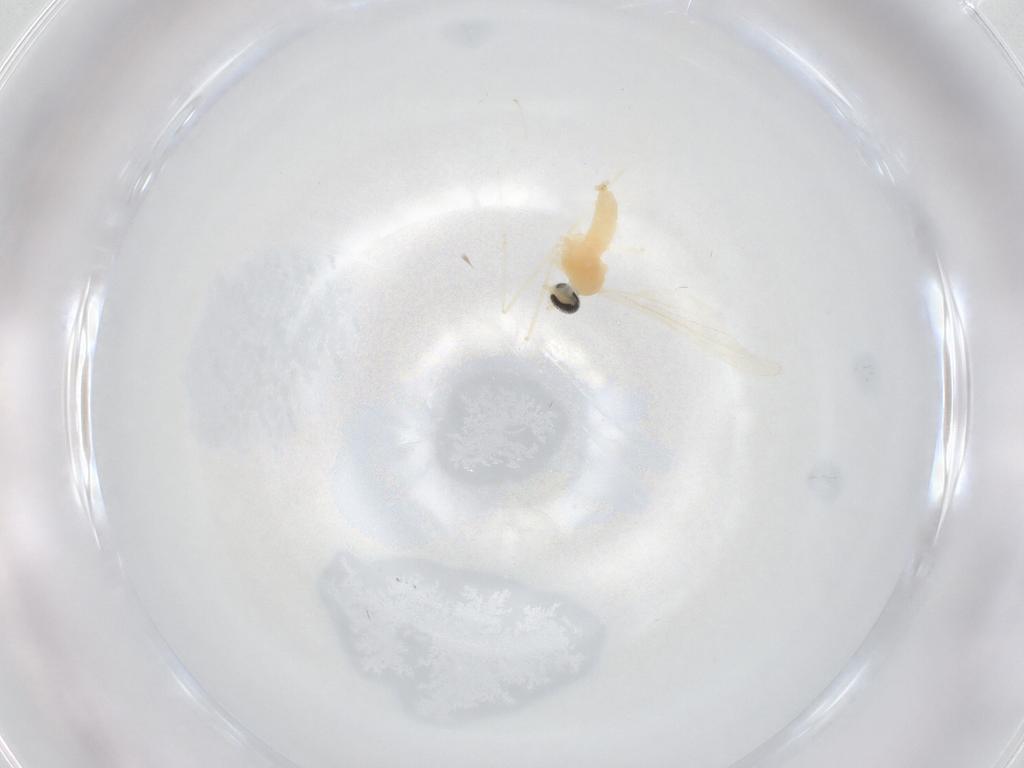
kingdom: Animalia
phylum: Arthropoda
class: Insecta
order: Diptera
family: Cecidomyiidae
